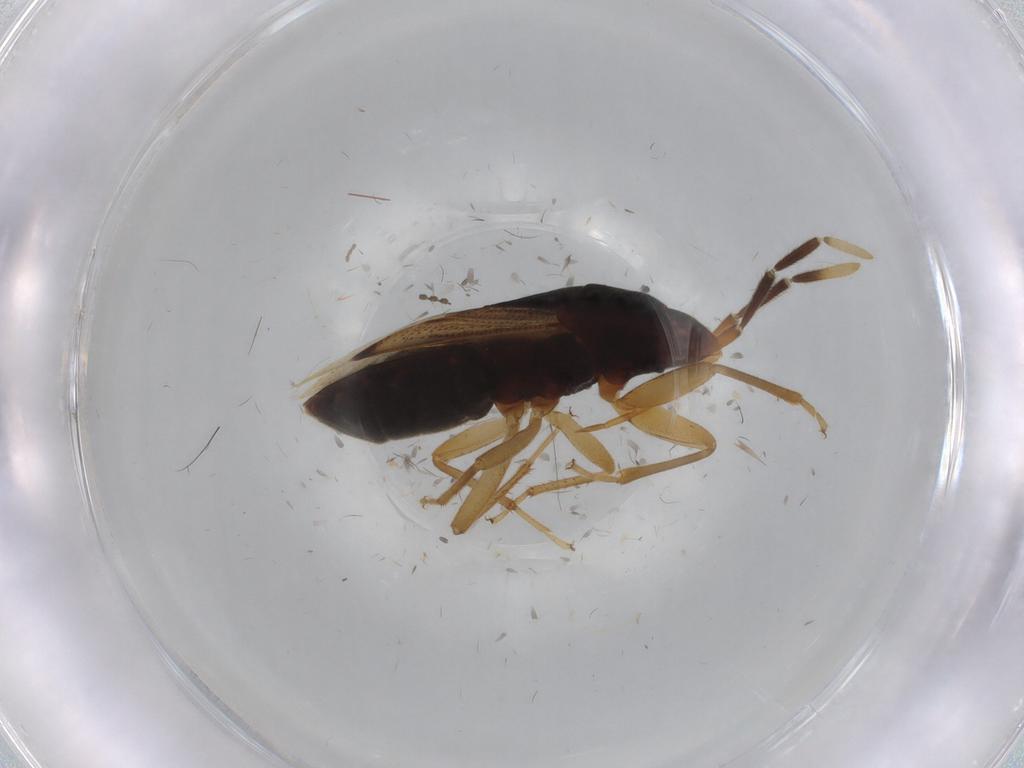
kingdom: Animalia
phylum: Arthropoda
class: Insecta
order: Hemiptera
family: Rhyparochromidae
